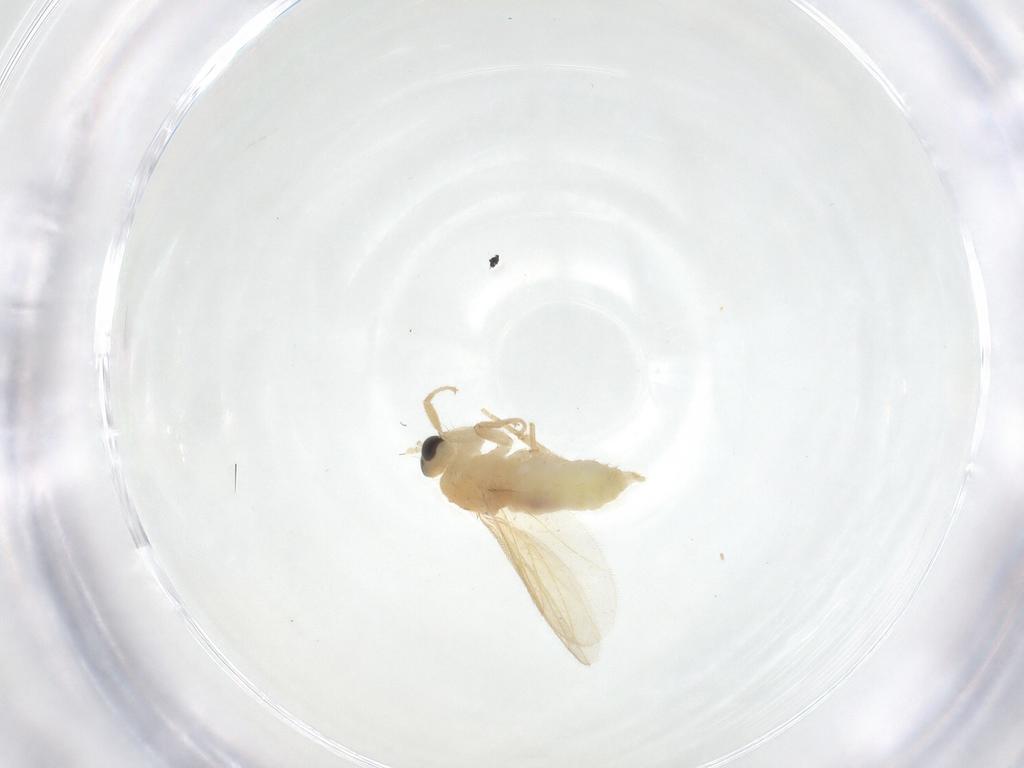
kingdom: Animalia
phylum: Arthropoda
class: Insecta
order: Diptera
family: Hybotidae
